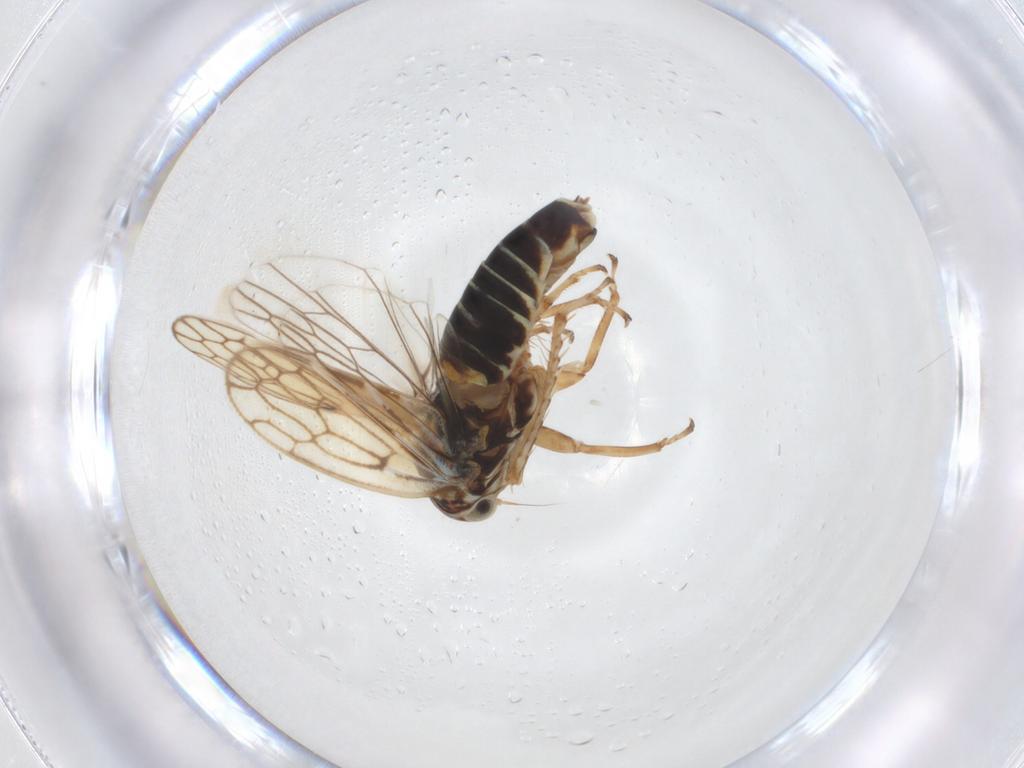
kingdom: Animalia
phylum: Arthropoda
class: Insecta
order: Hemiptera
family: Cicadellidae
